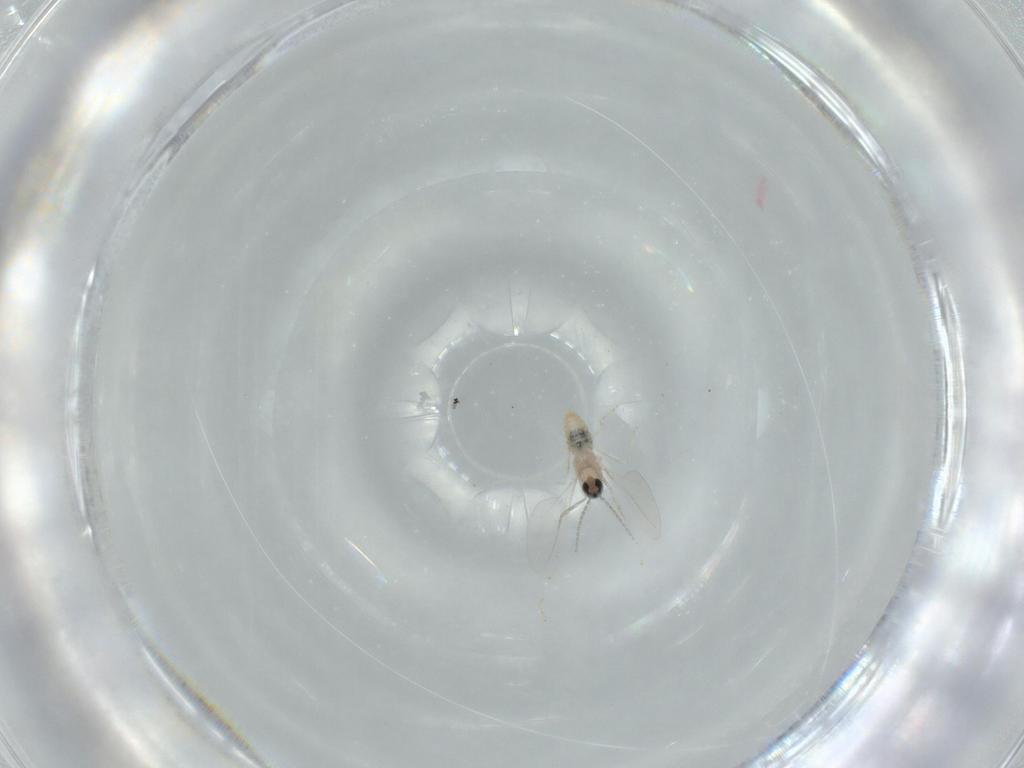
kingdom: Animalia
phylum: Arthropoda
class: Insecta
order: Diptera
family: Cecidomyiidae
